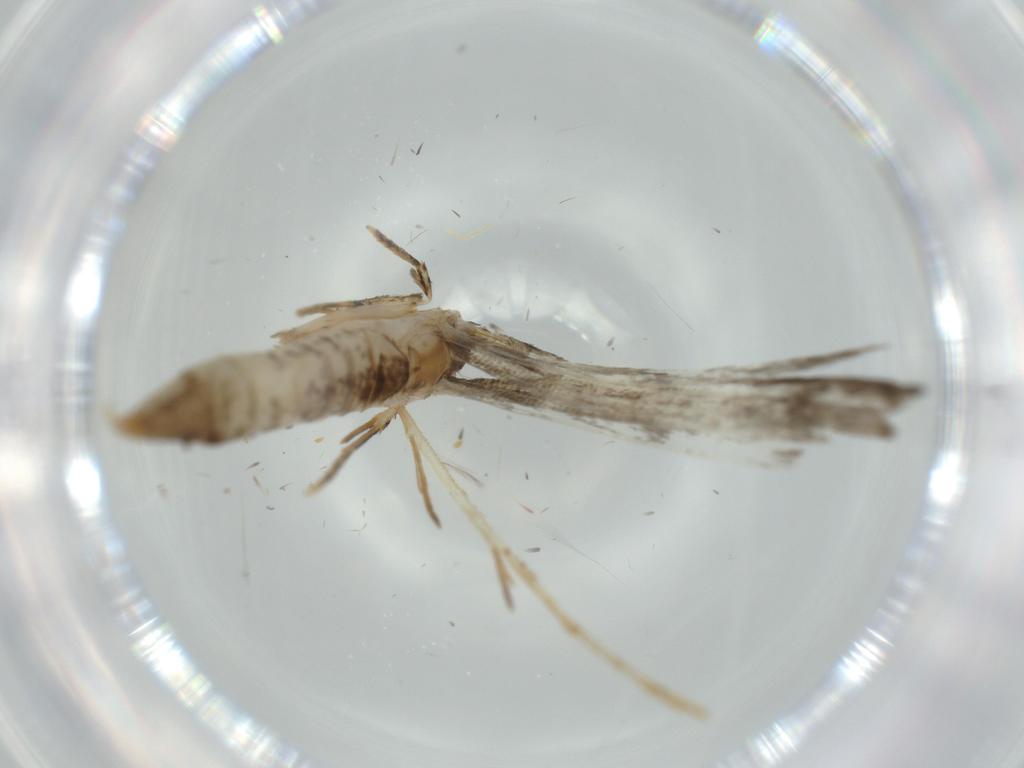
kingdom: Animalia
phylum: Arthropoda
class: Insecta
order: Lepidoptera
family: Tineidae
